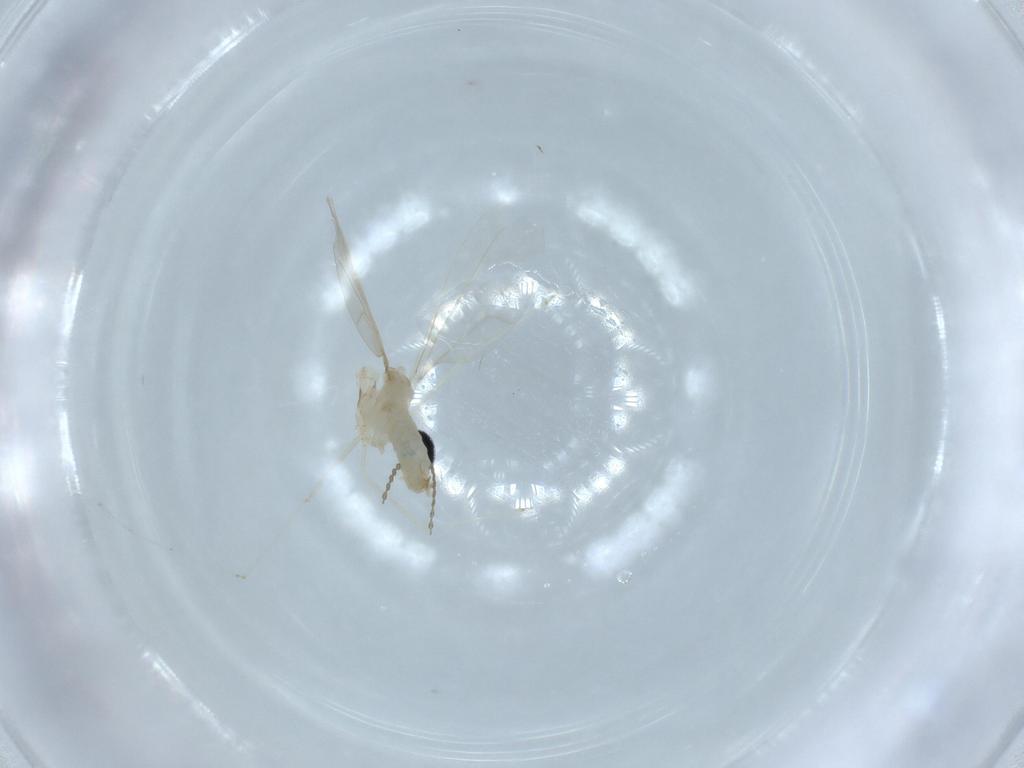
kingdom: Animalia
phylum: Arthropoda
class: Insecta
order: Diptera
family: Cecidomyiidae
